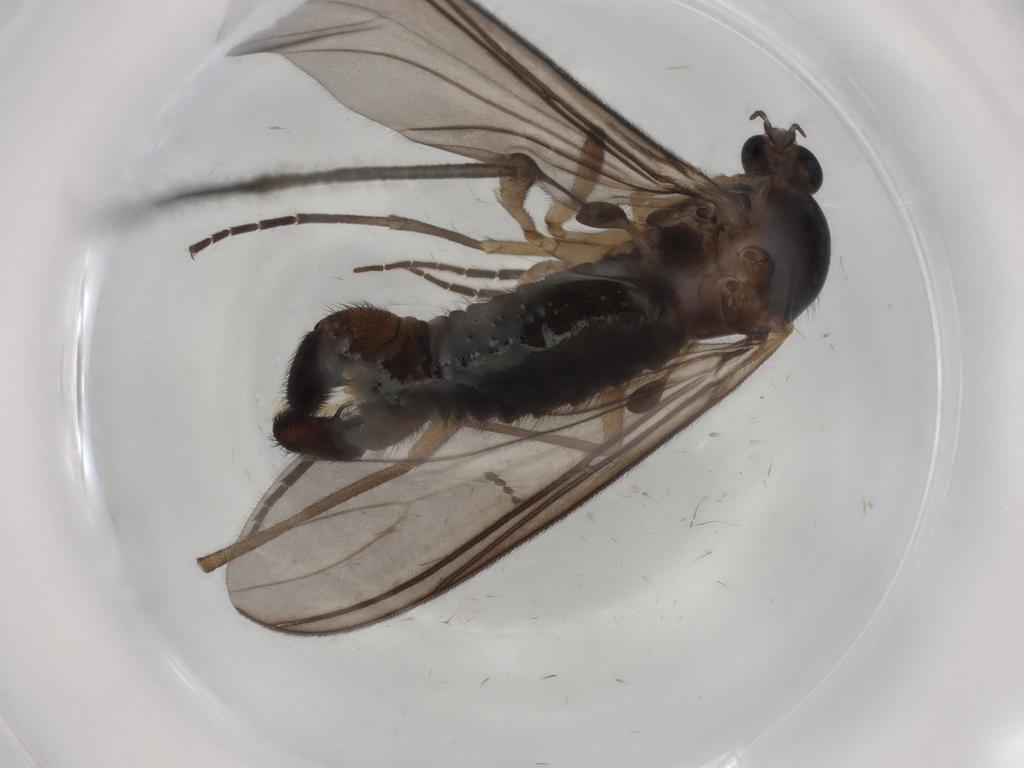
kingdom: Animalia
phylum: Arthropoda
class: Insecta
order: Diptera
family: Sciaridae
